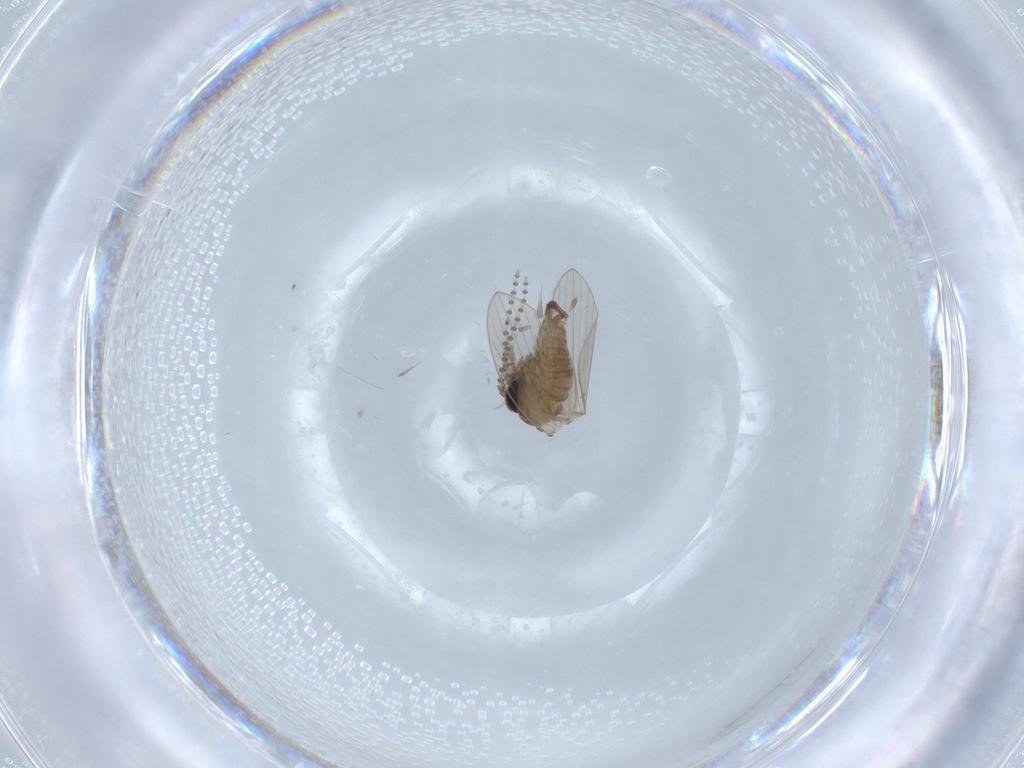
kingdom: Animalia
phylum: Arthropoda
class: Insecta
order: Diptera
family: Psychodidae
